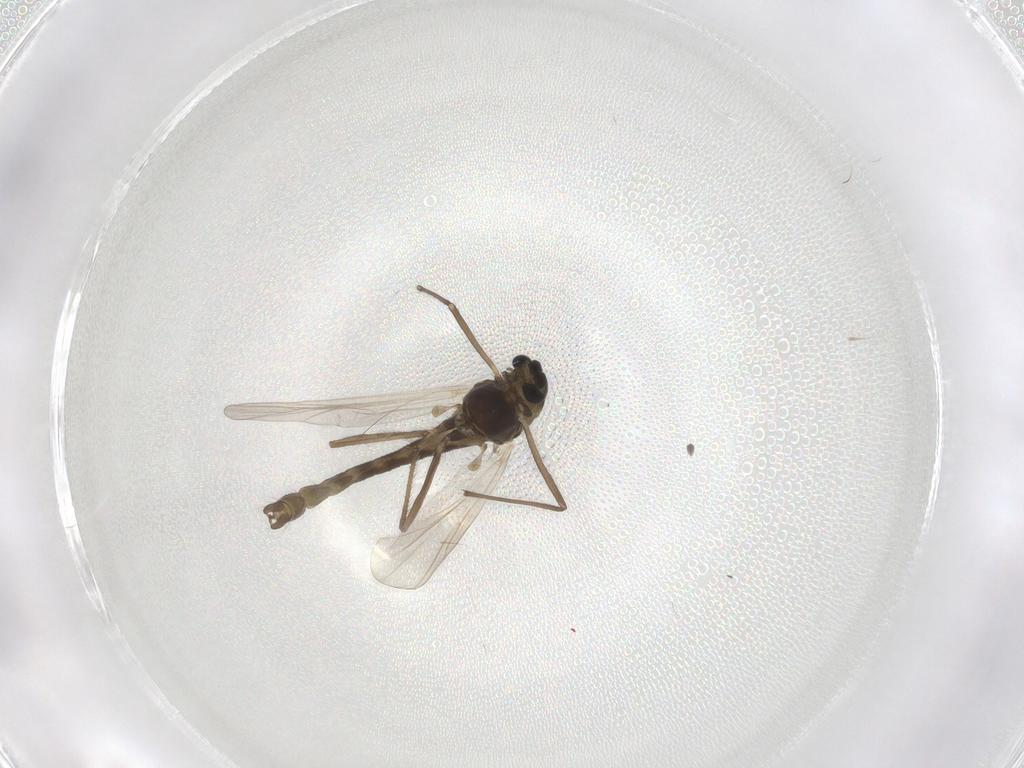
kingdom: Animalia
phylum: Arthropoda
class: Insecta
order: Diptera
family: Chironomidae
